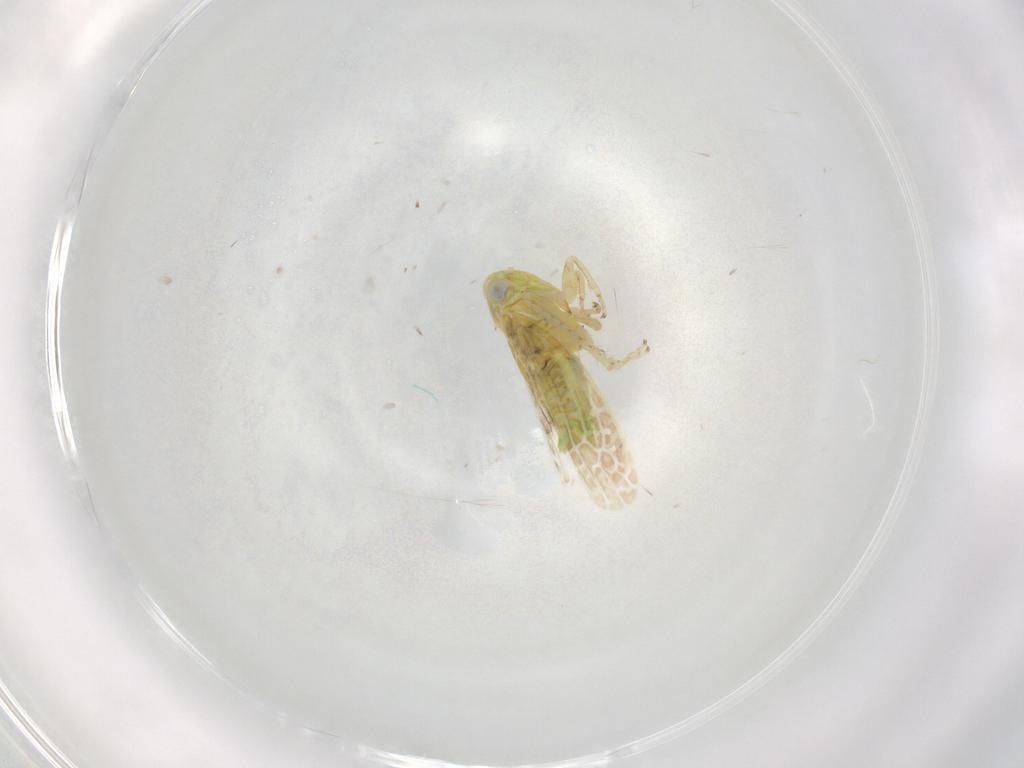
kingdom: Animalia
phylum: Arthropoda
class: Insecta
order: Hemiptera
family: Cicadellidae
